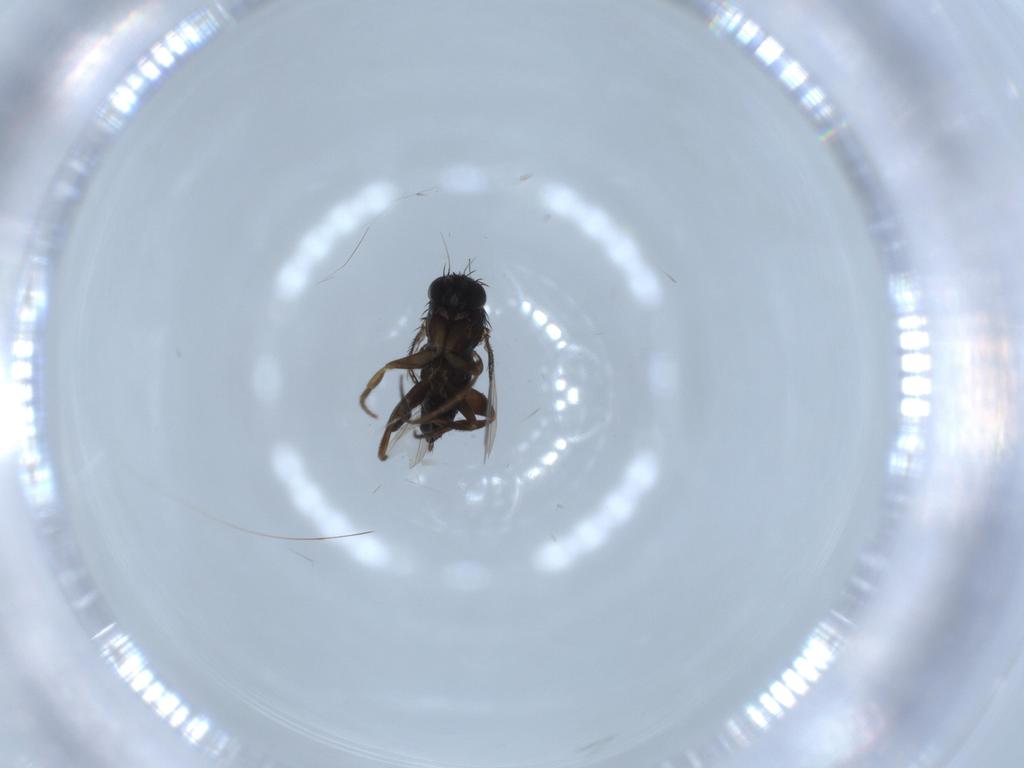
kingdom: Animalia
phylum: Arthropoda
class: Insecta
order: Diptera
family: Phoridae
